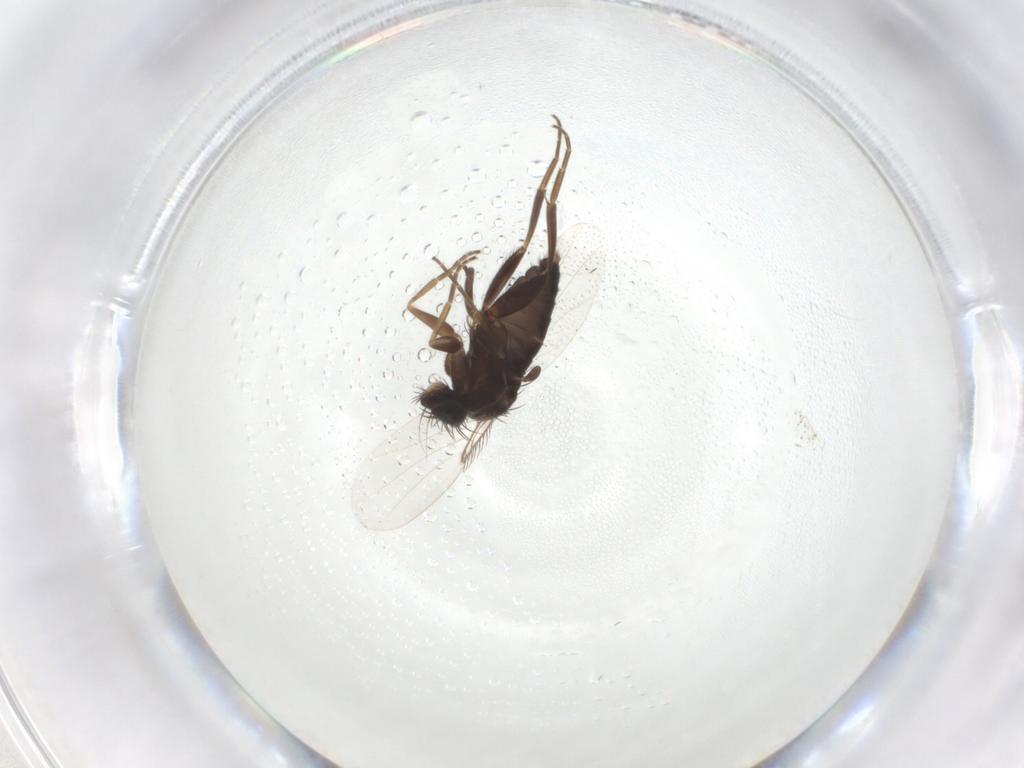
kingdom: Animalia
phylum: Arthropoda
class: Insecta
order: Diptera
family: Phoridae
